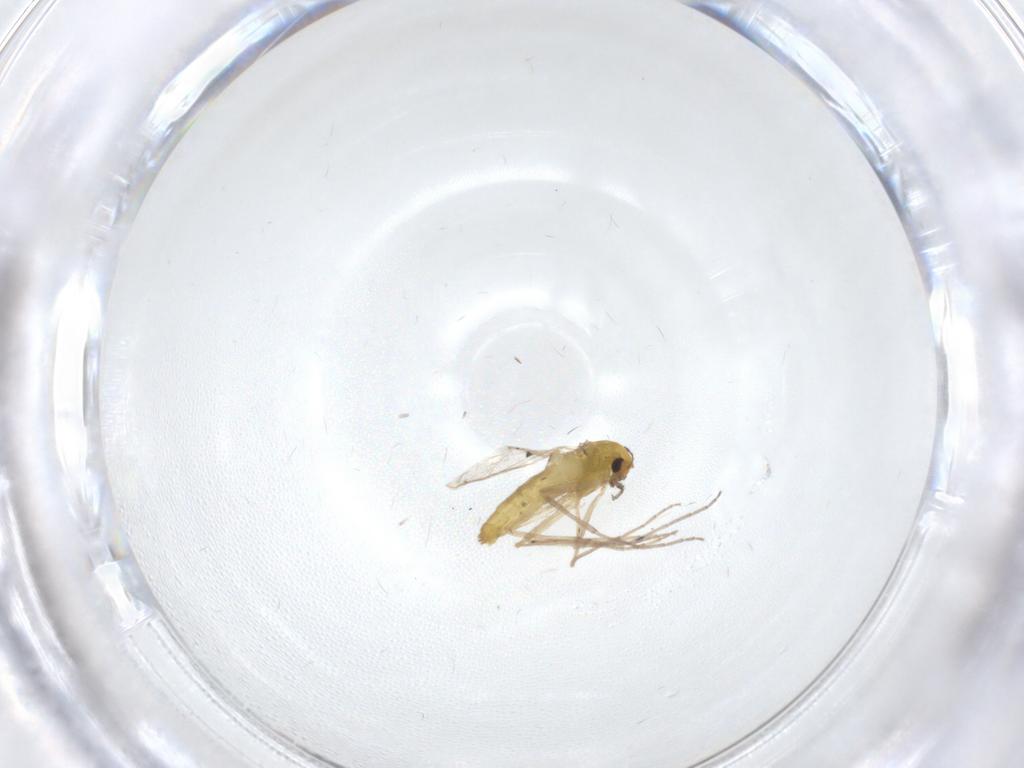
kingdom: Animalia
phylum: Arthropoda
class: Insecta
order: Diptera
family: Chironomidae
